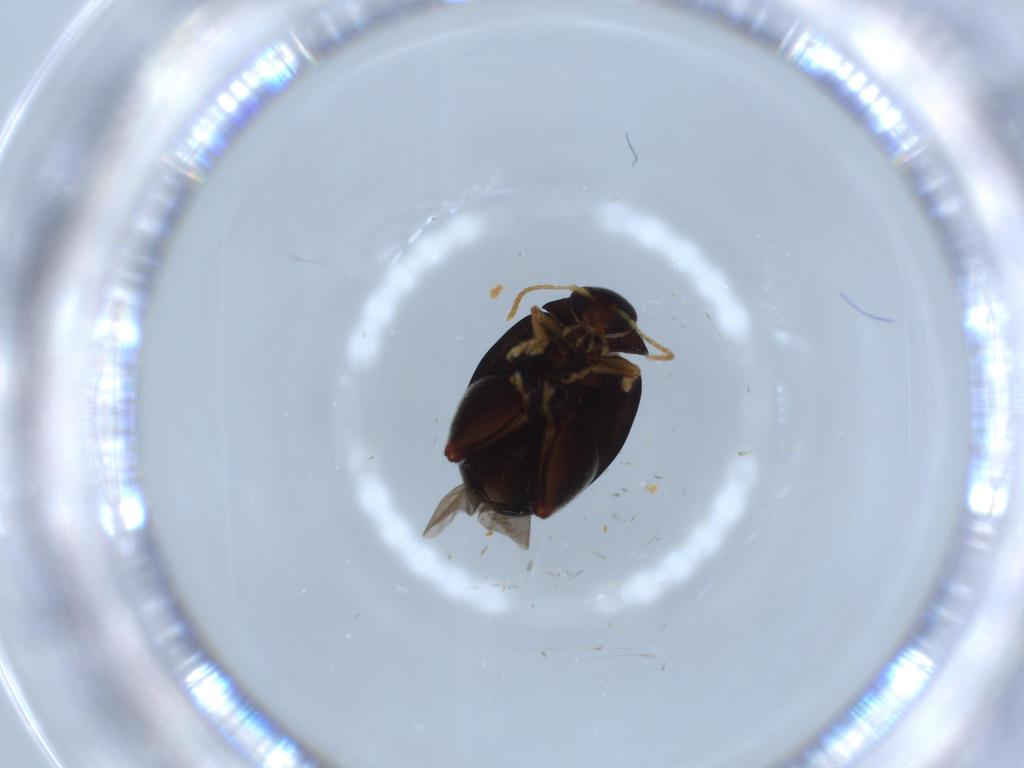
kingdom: Animalia
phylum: Arthropoda
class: Insecta
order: Coleoptera
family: Chrysomelidae
